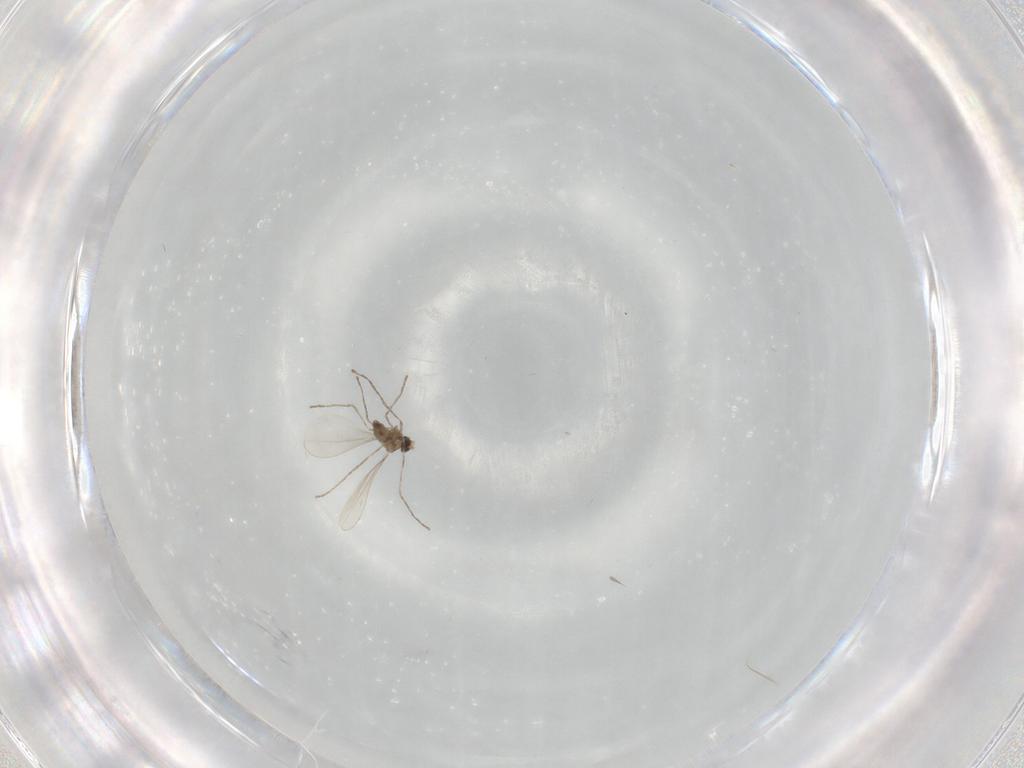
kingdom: Animalia
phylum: Arthropoda
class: Insecta
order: Diptera
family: Cecidomyiidae
